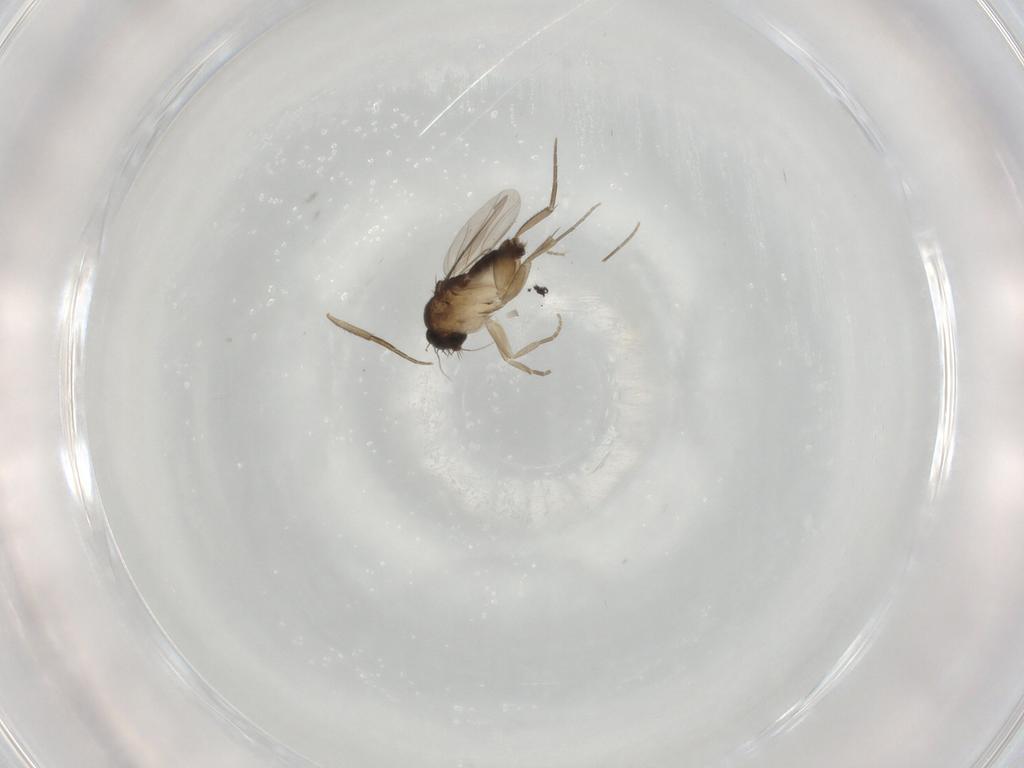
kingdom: Animalia
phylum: Arthropoda
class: Insecta
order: Diptera
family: Phoridae
